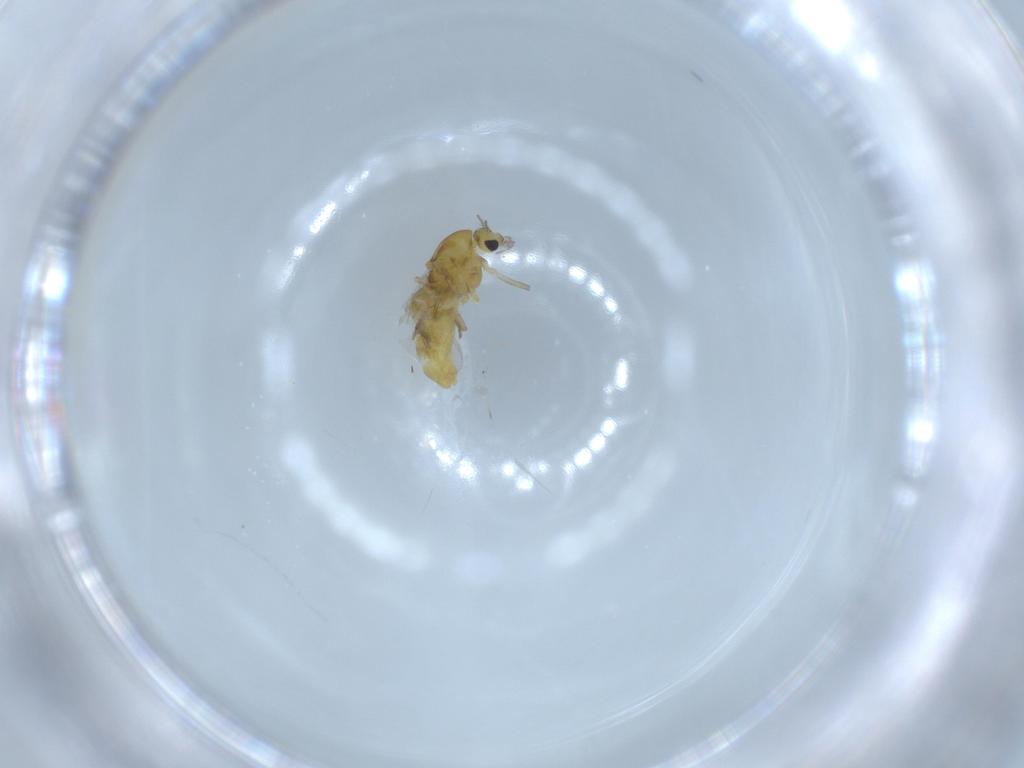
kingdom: Animalia
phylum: Arthropoda
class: Insecta
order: Diptera
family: Chironomidae
